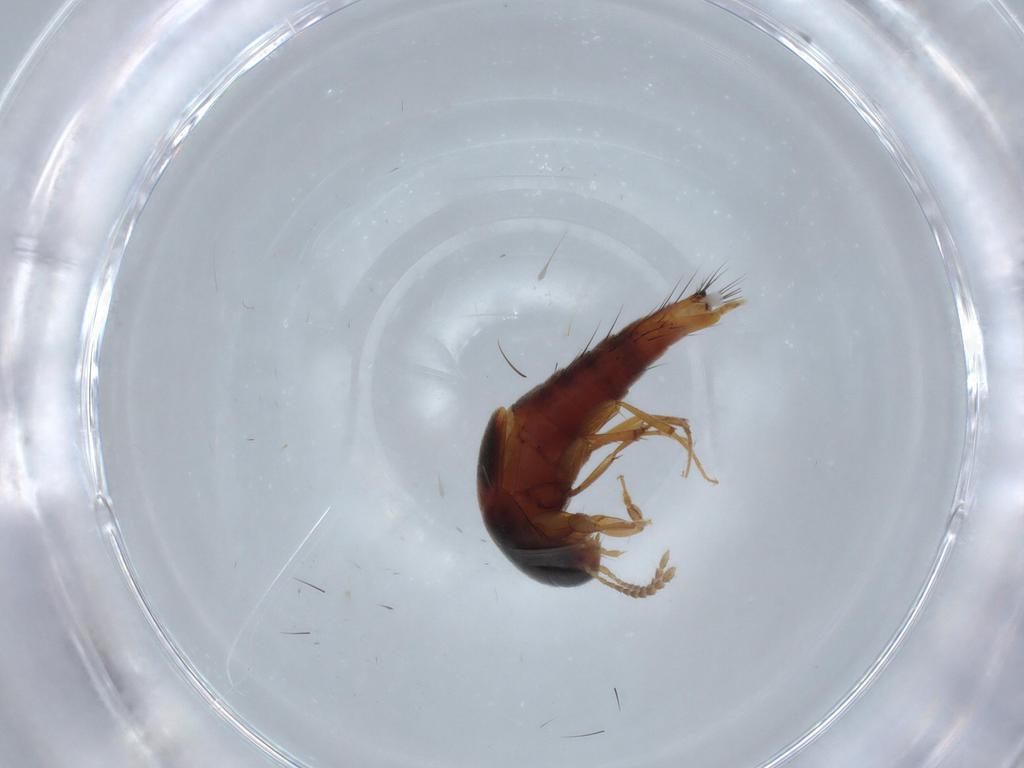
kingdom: Animalia
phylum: Arthropoda
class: Insecta
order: Coleoptera
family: Staphylinidae
